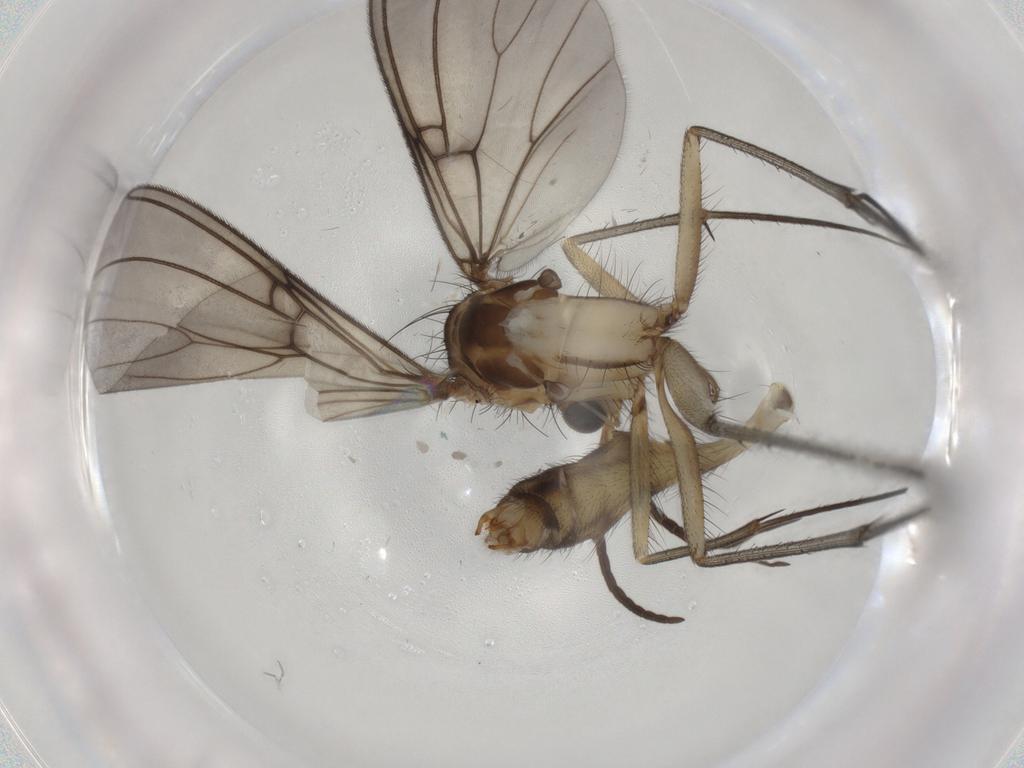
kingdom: Animalia
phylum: Arthropoda
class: Insecta
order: Diptera
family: Mycetophilidae
